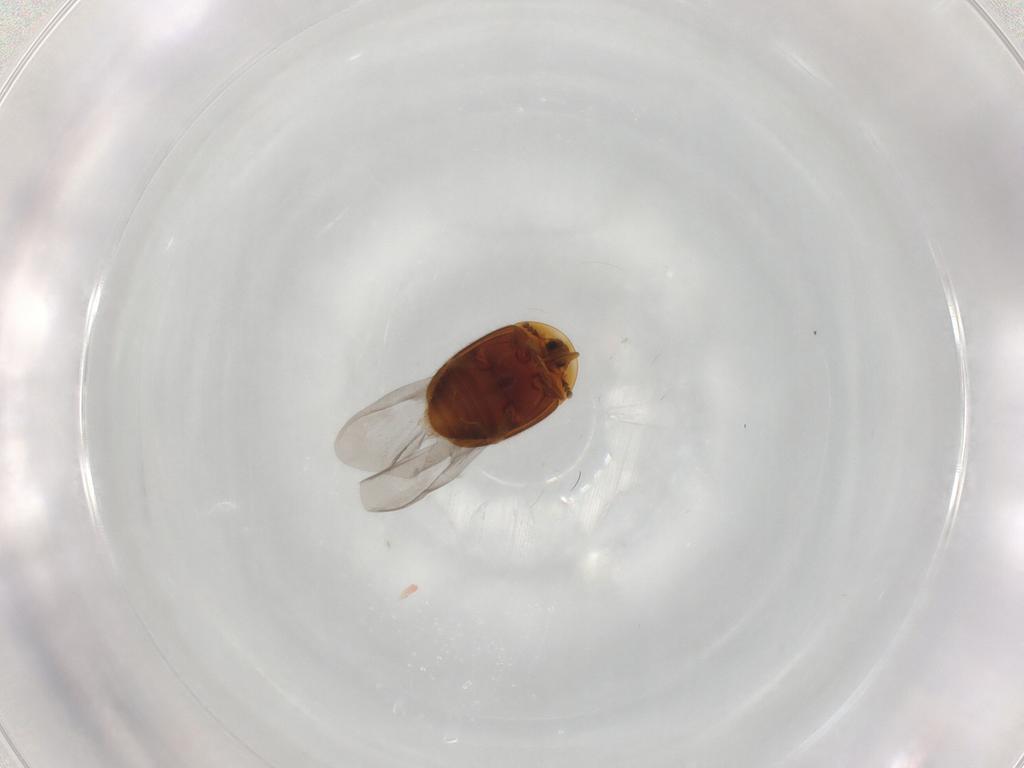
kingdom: Animalia
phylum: Arthropoda
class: Insecta
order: Coleoptera
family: Corylophidae
